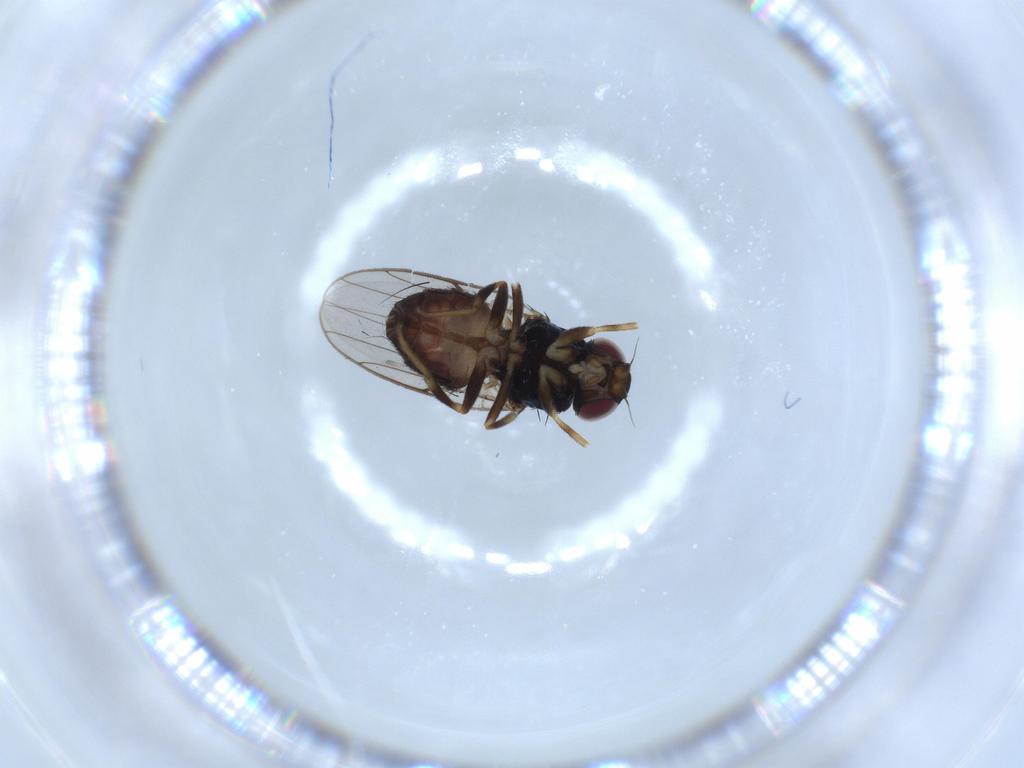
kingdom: Animalia
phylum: Arthropoda
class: Insecta
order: Diptera
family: Chloropidae
